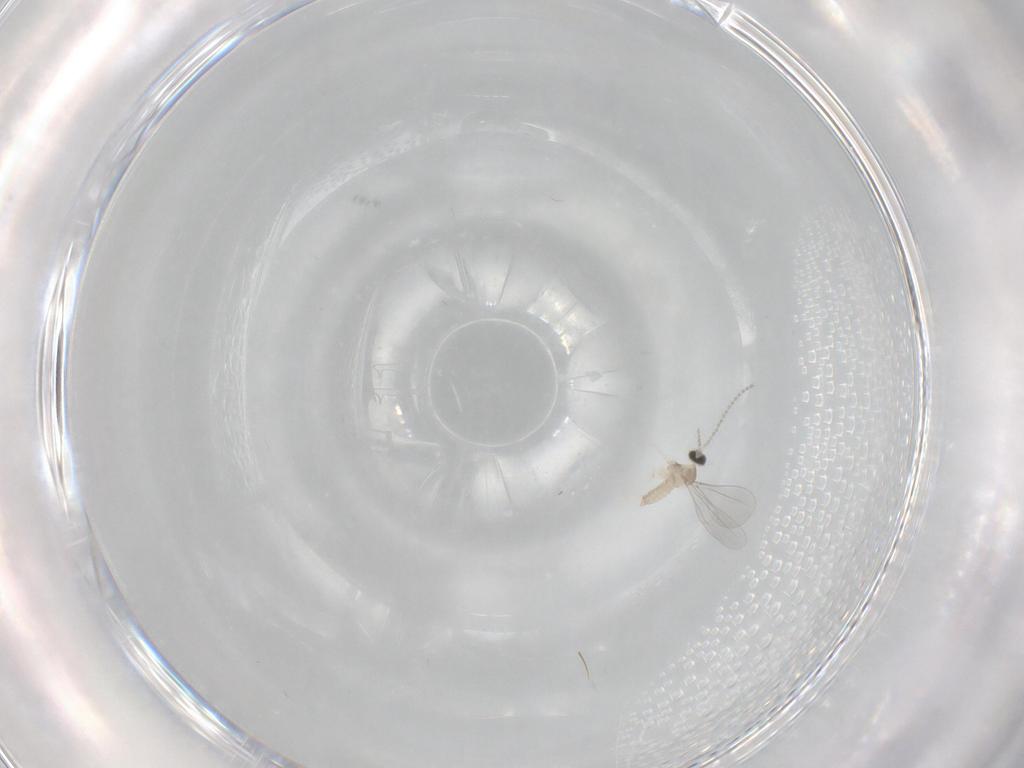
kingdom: Animalia
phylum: Arthropoda
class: Insecta
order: Diptera
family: Cecidomyiidae
